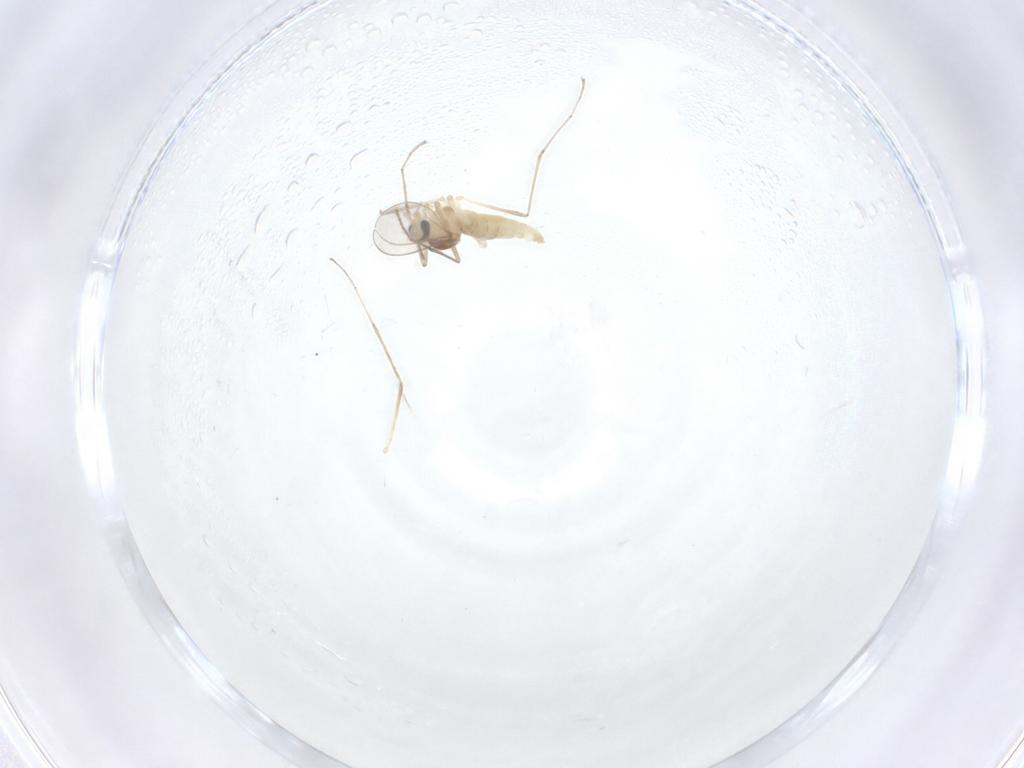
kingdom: Animalia
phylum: Arthropoda
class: Insecta
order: Diptera
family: Cecidomyiidae
